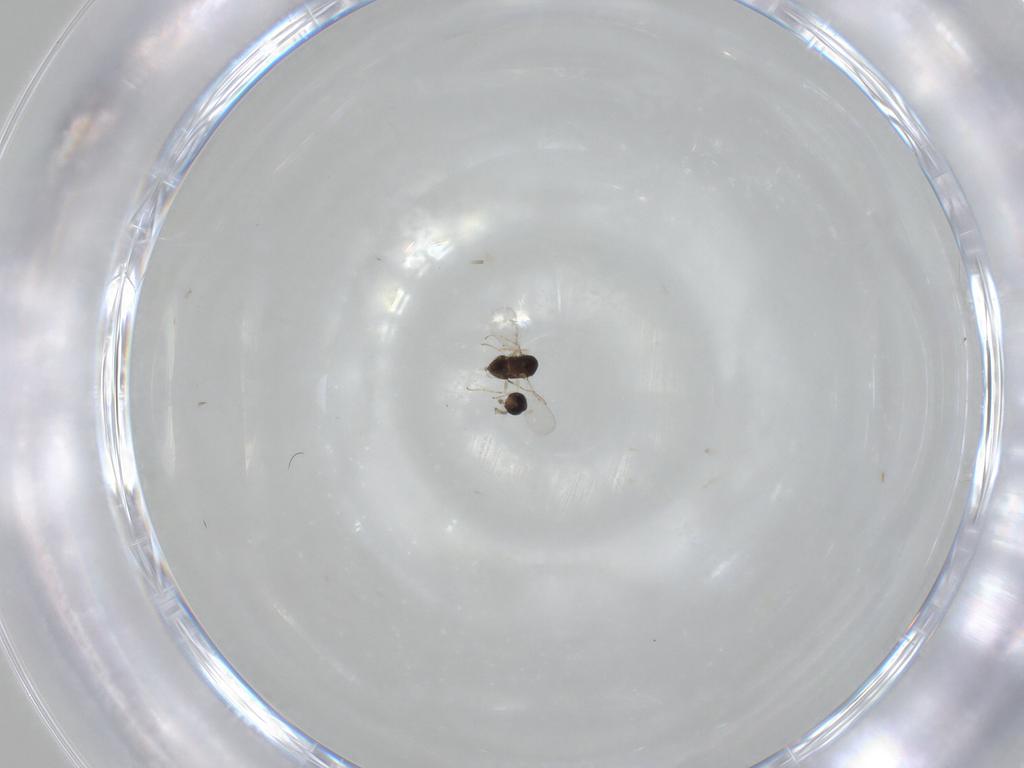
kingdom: Animalia
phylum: Arthropoda
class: Insecta
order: Hymenoptera
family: Encyrtidae
